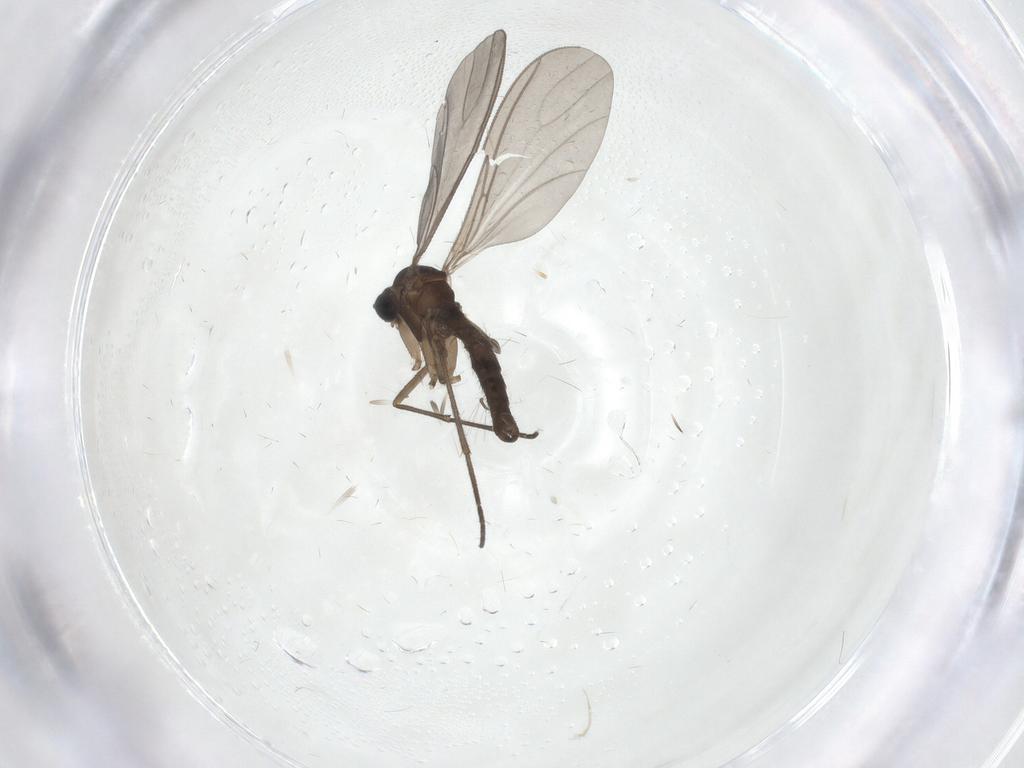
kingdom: Animalia
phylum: Arthropoda
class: Insecta
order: Diptera
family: Sciaridae
